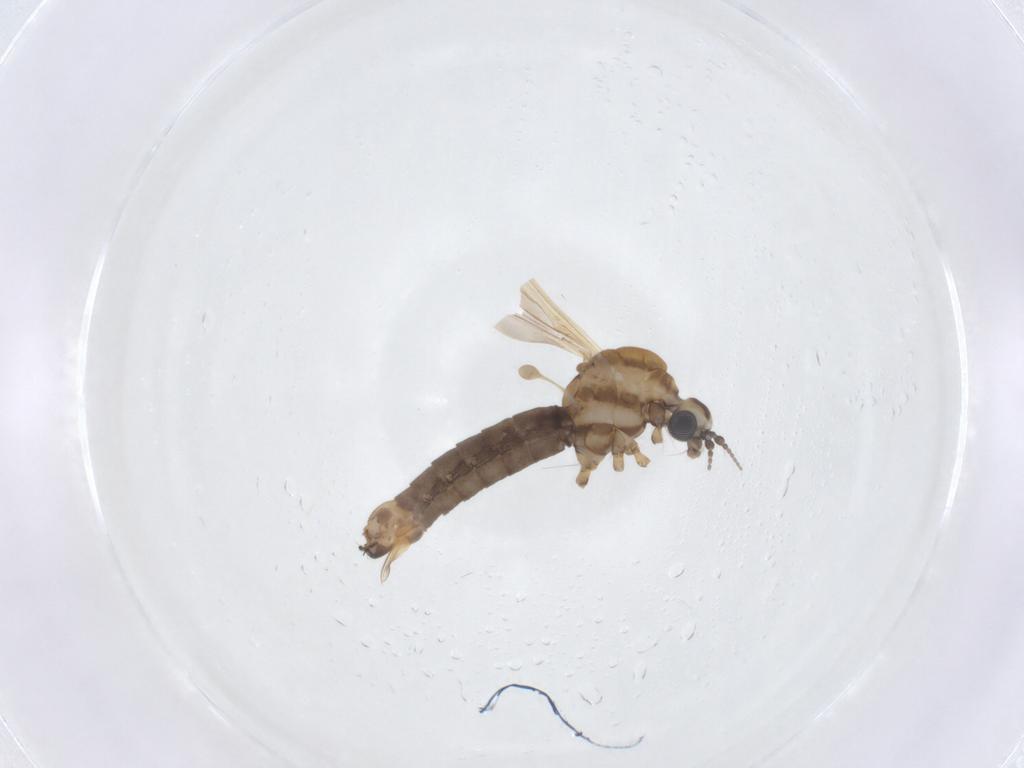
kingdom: Animalia
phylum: Arthropoda
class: Insecta
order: Diptera
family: Limoniidae
